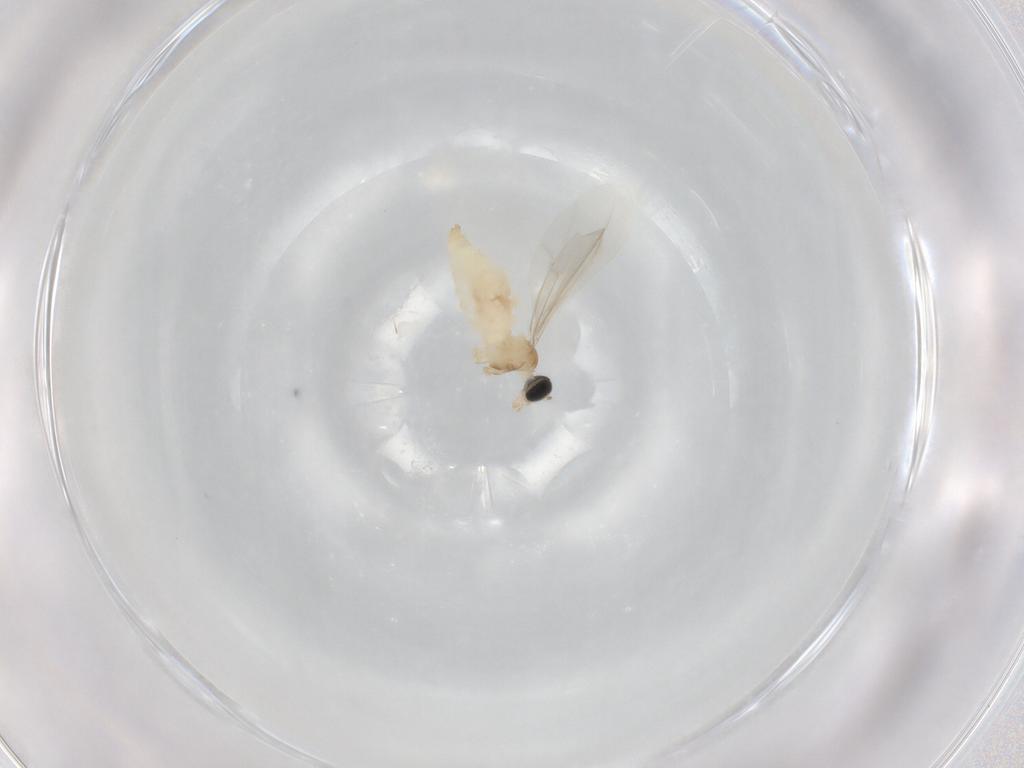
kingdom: Animalia
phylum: Arthropoda
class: Insecta
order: Diptera
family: Cecidomyiidae
